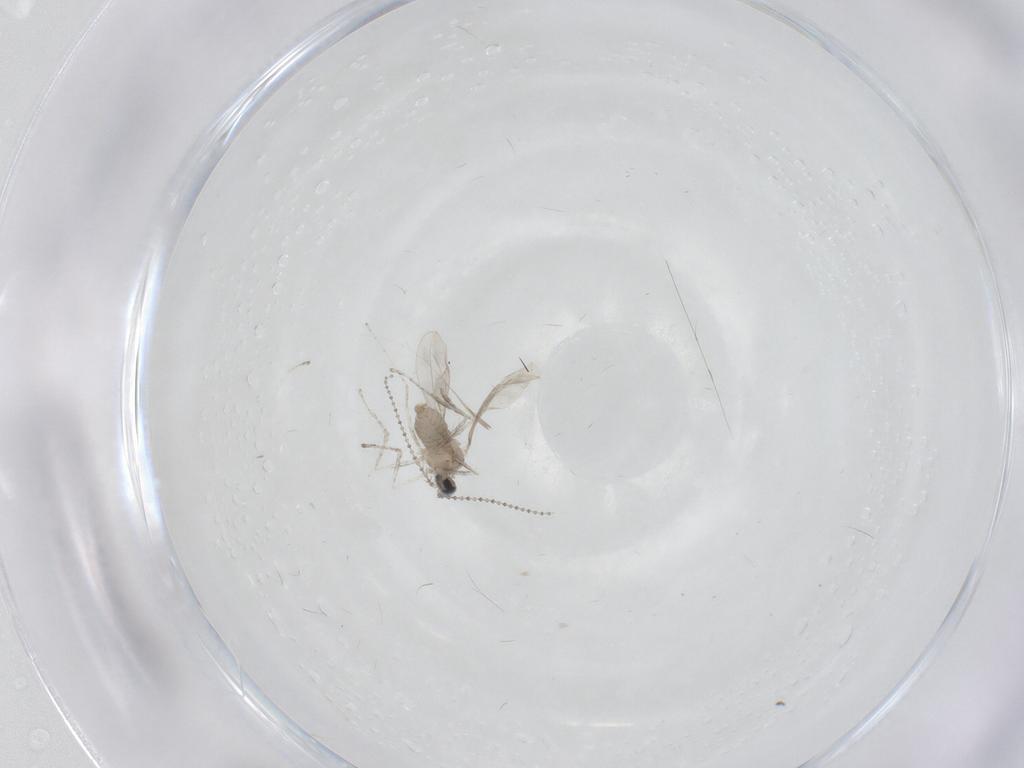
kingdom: Animalia
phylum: Arthropoda
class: Insecta
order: Diptera
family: Cecidomyiidae
